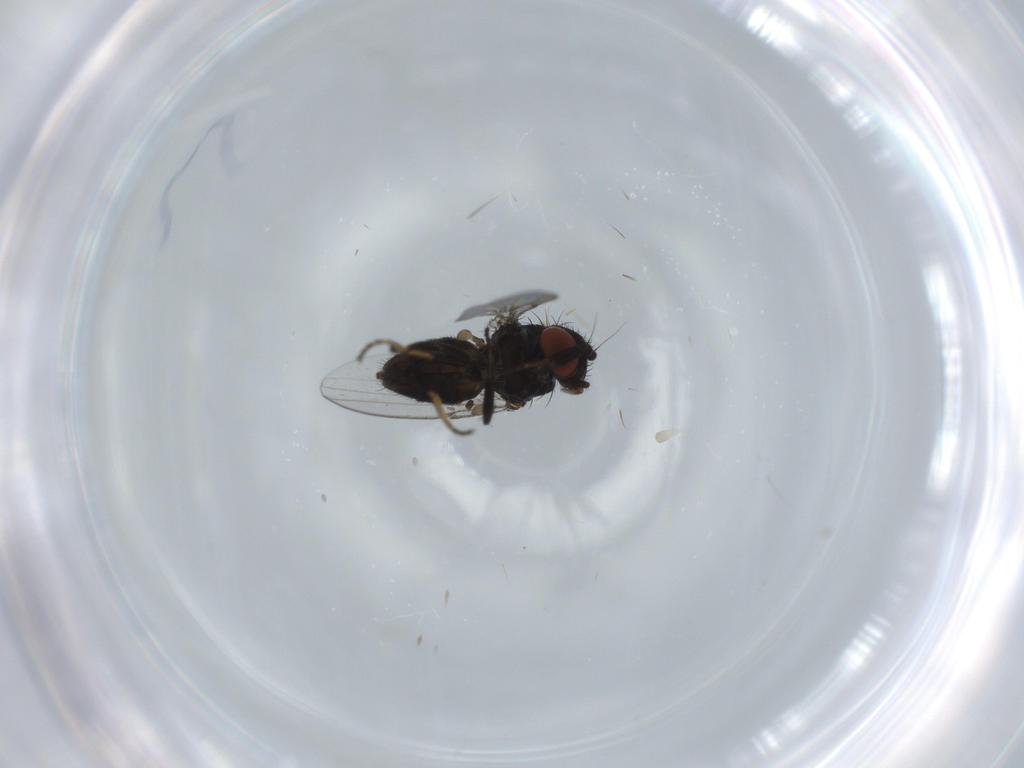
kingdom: Animalia
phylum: Arthropoda
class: Insecta
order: Diptera
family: Milichiidae
